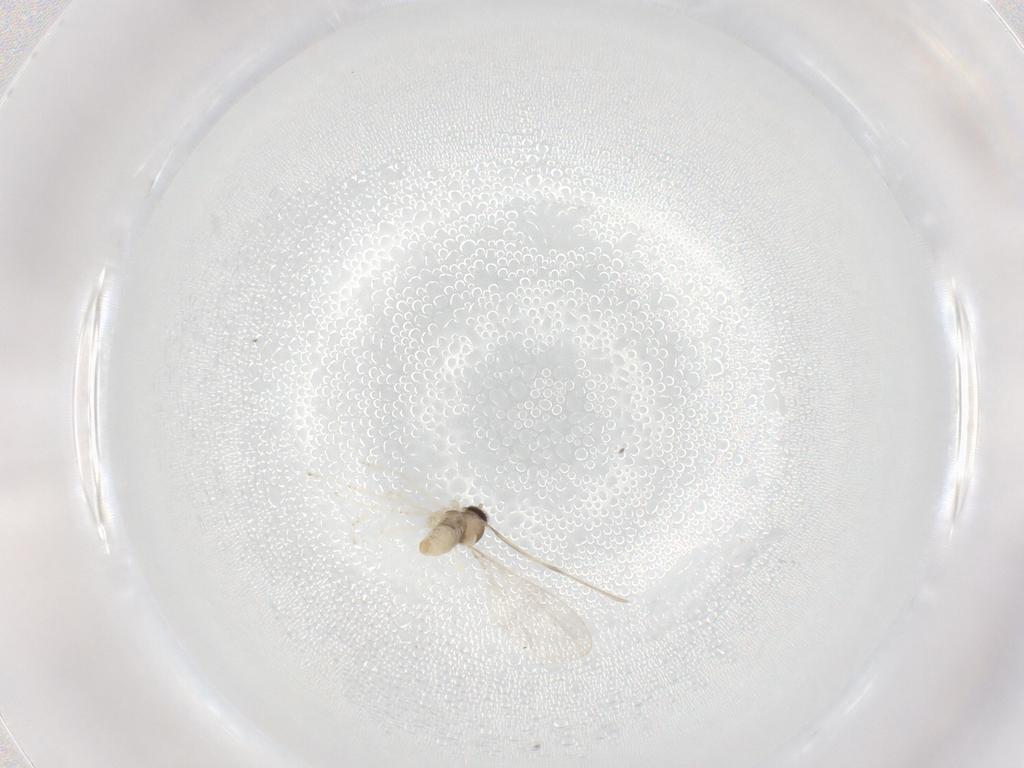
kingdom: Animalia
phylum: Arthropoda
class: Insecta
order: Diptera
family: Cecidomyiidae
